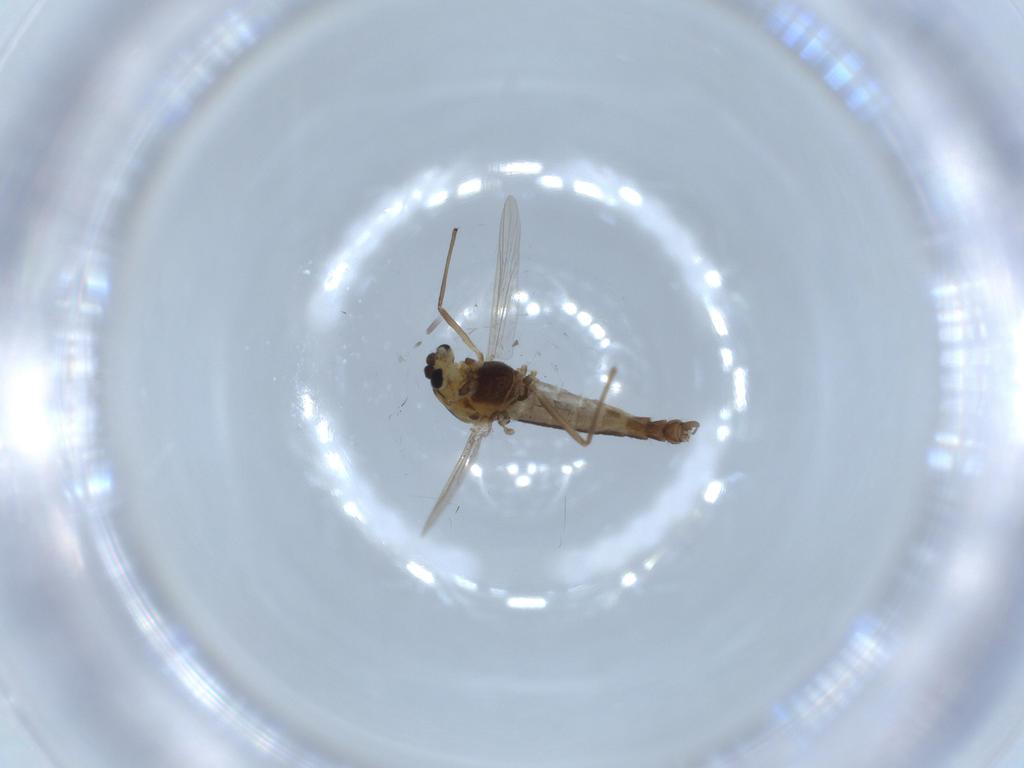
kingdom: Animalia
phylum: Arthropoda
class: Insecta
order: Diptera
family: Chironomidae
